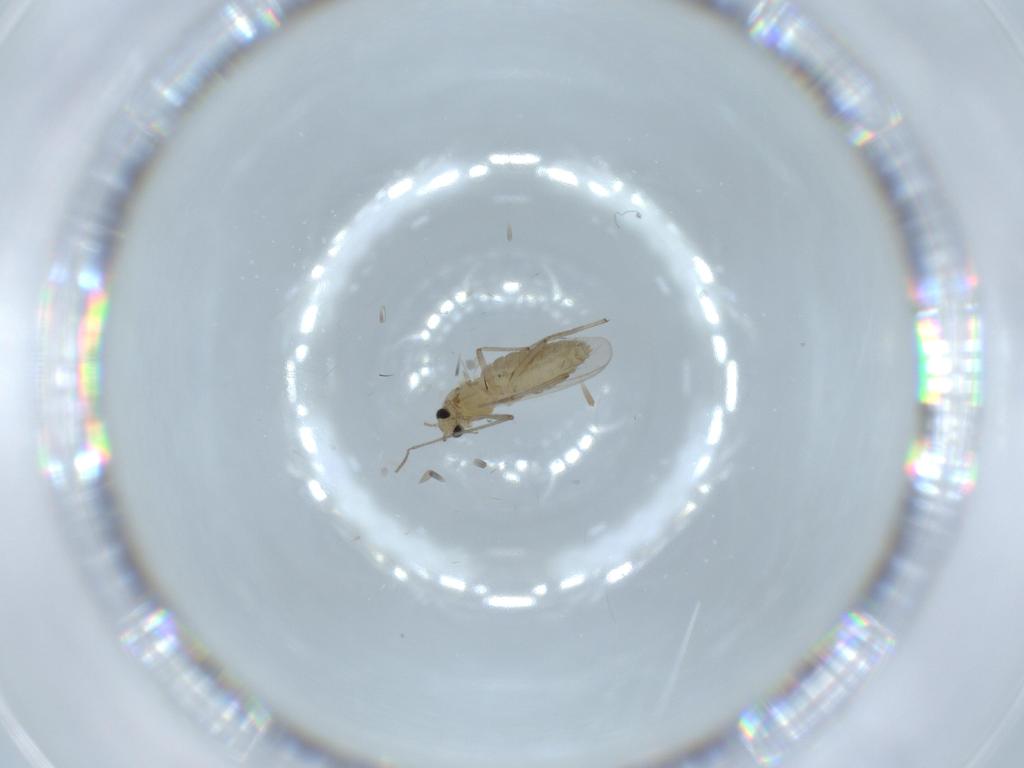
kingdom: Animalia
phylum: Arthropoda
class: Insecta
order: Diptera
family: Chironomidae
